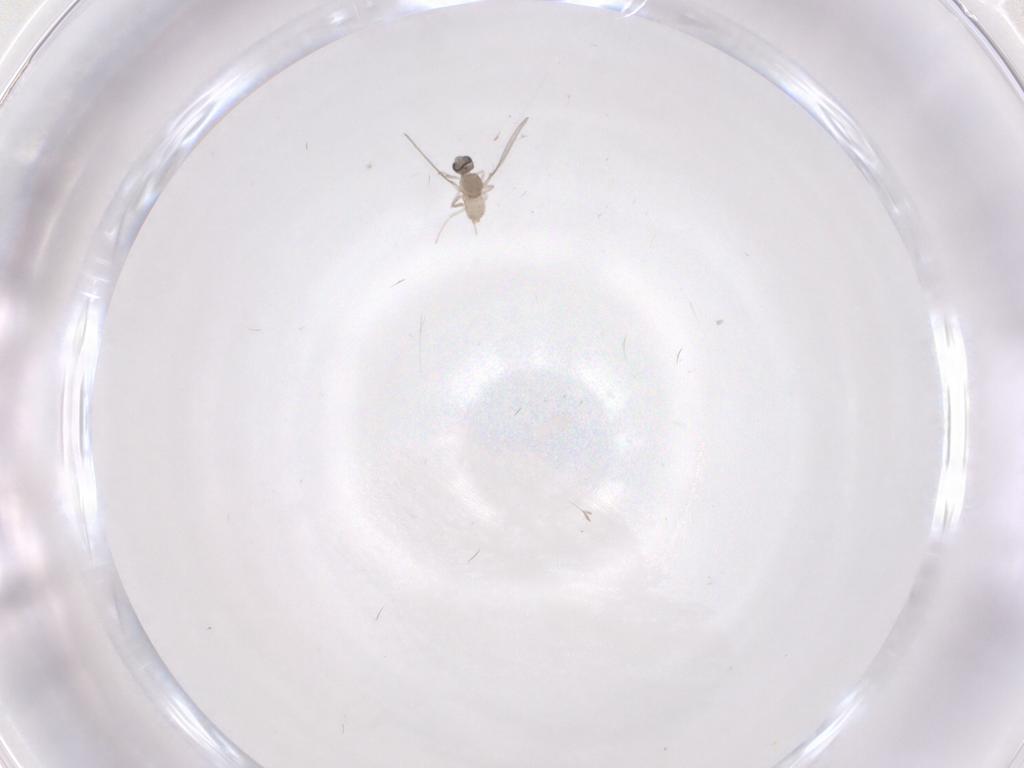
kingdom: Animalia
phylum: Arthropoda
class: Insecta
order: Diptera
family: Cecidomyiidae
